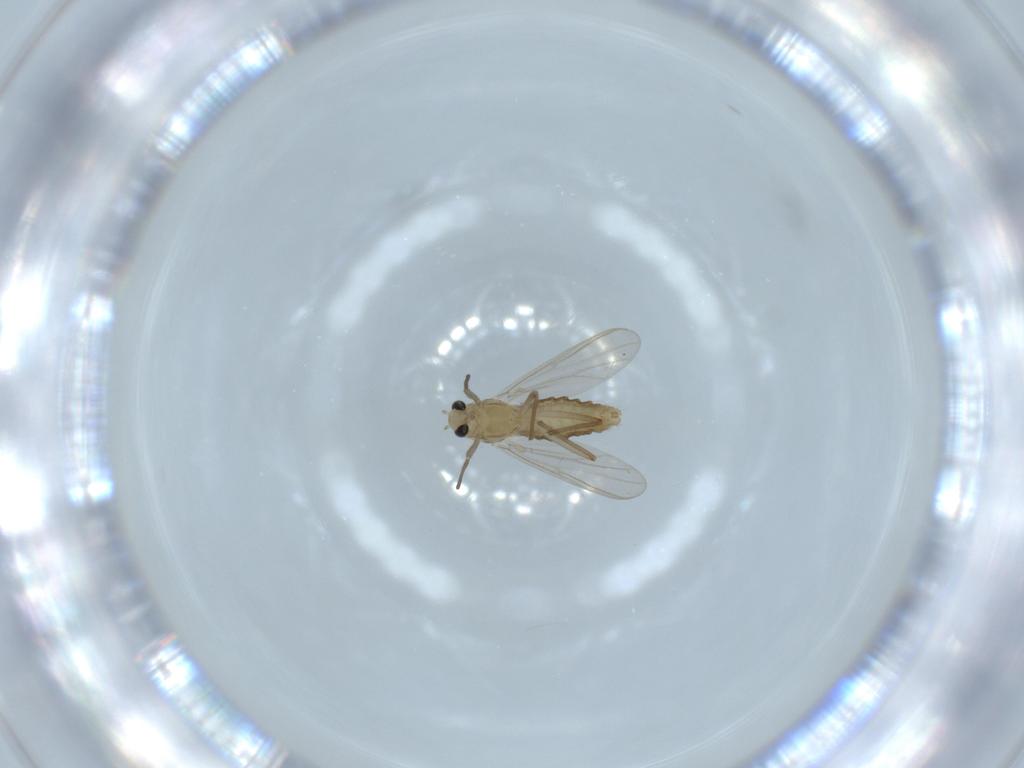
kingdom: Animalia
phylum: Arthropoda
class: Insecta
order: Diptera
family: Chironomidae
